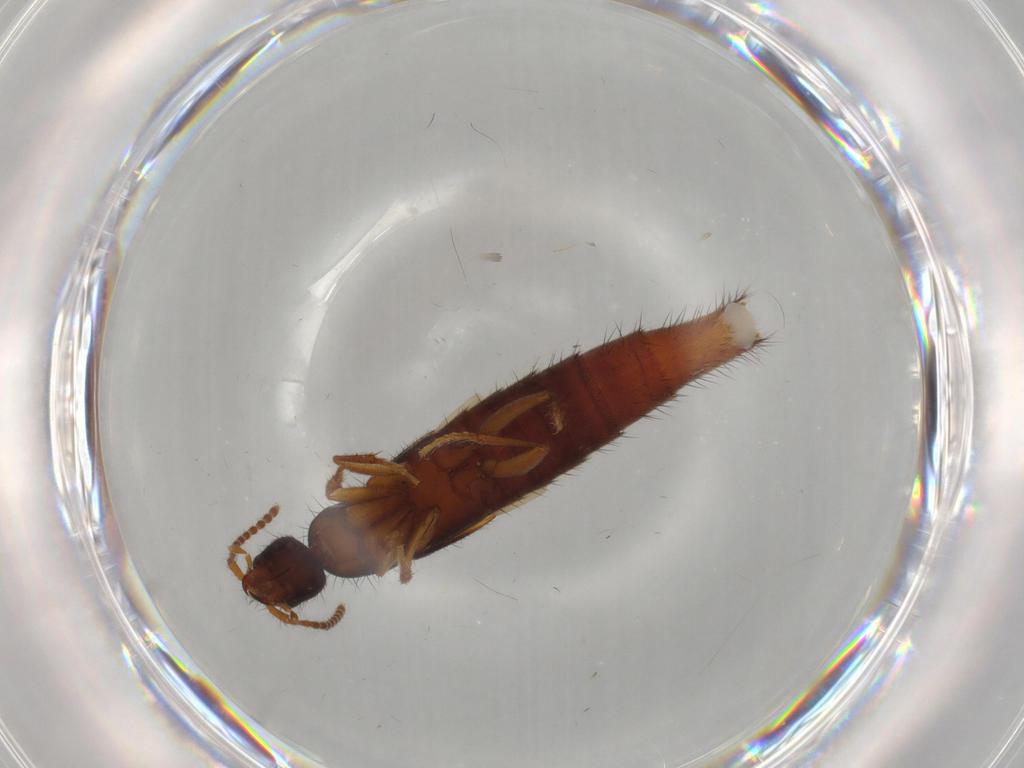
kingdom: Animalia
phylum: Arthropoda
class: Insecta
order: Coleoptera
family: Staphylinidae
